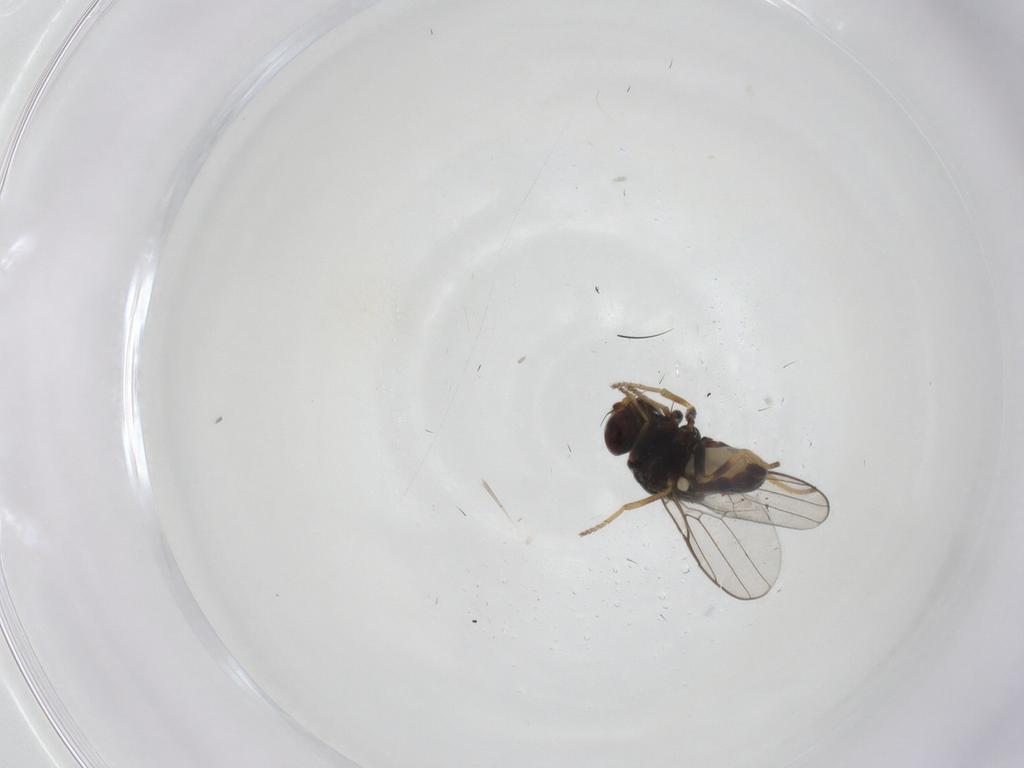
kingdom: Animalia
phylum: Arthropoda
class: Insecta
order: Diptera
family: Chloropidae
